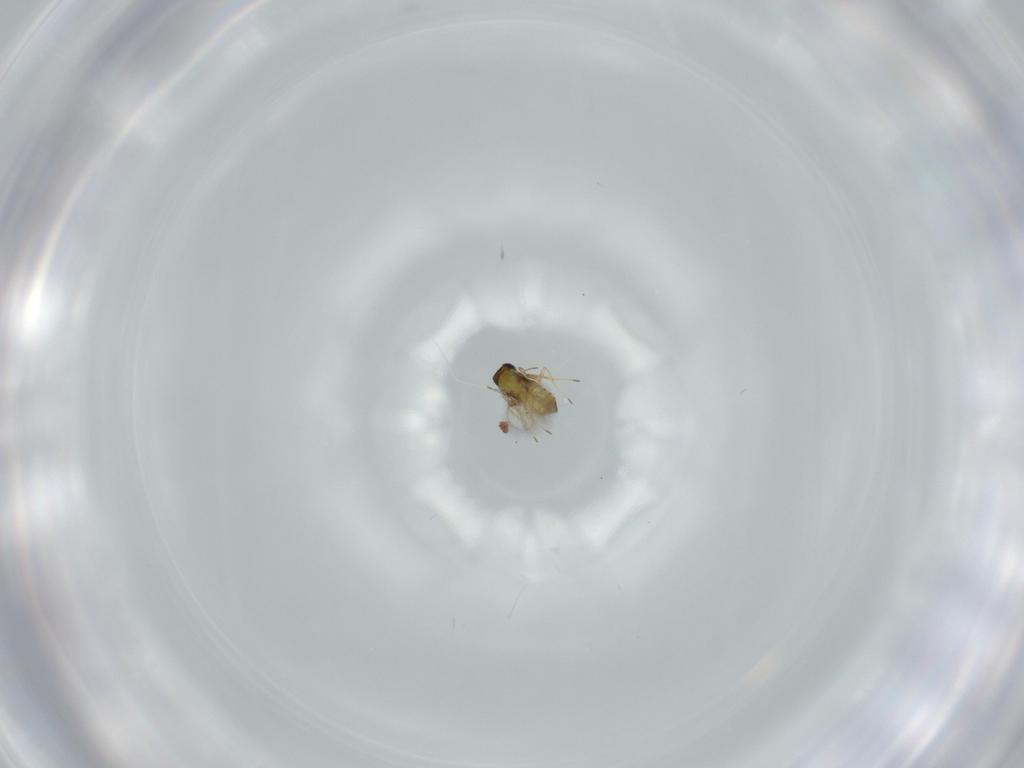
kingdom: Animalia
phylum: Arthropoda
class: Insecta
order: Hymenoptera
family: Trichogrammatidae
